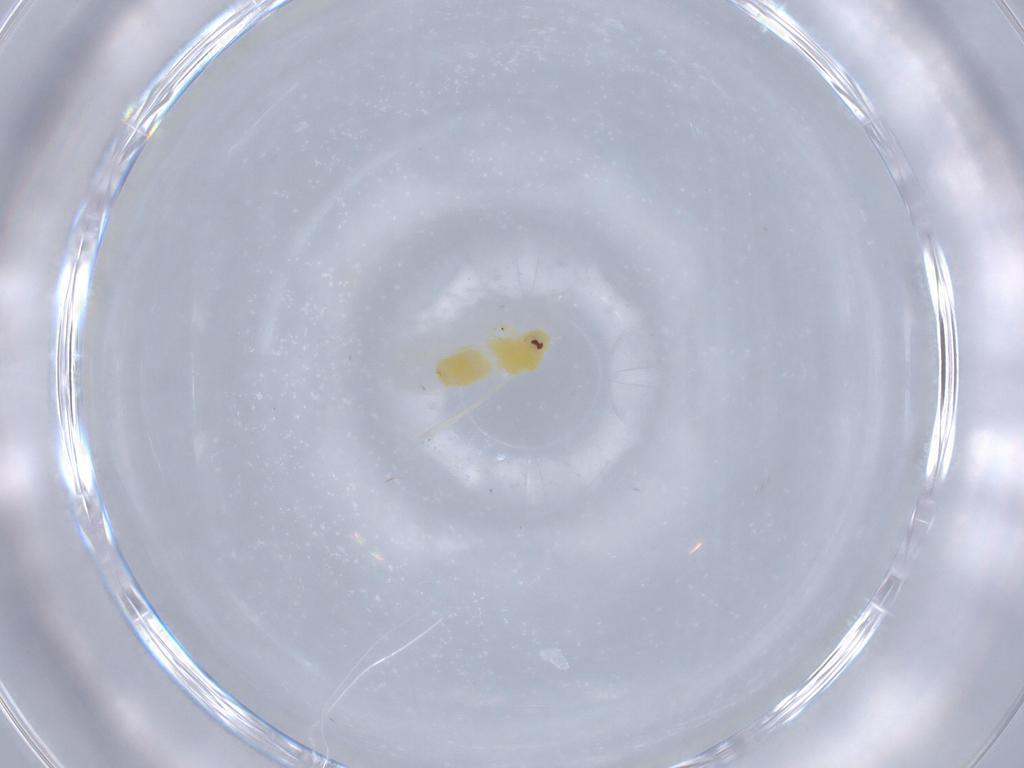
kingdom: Animalia
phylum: Arthropoda
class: Insecta
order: Hemiptera
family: Aleyrodidae
